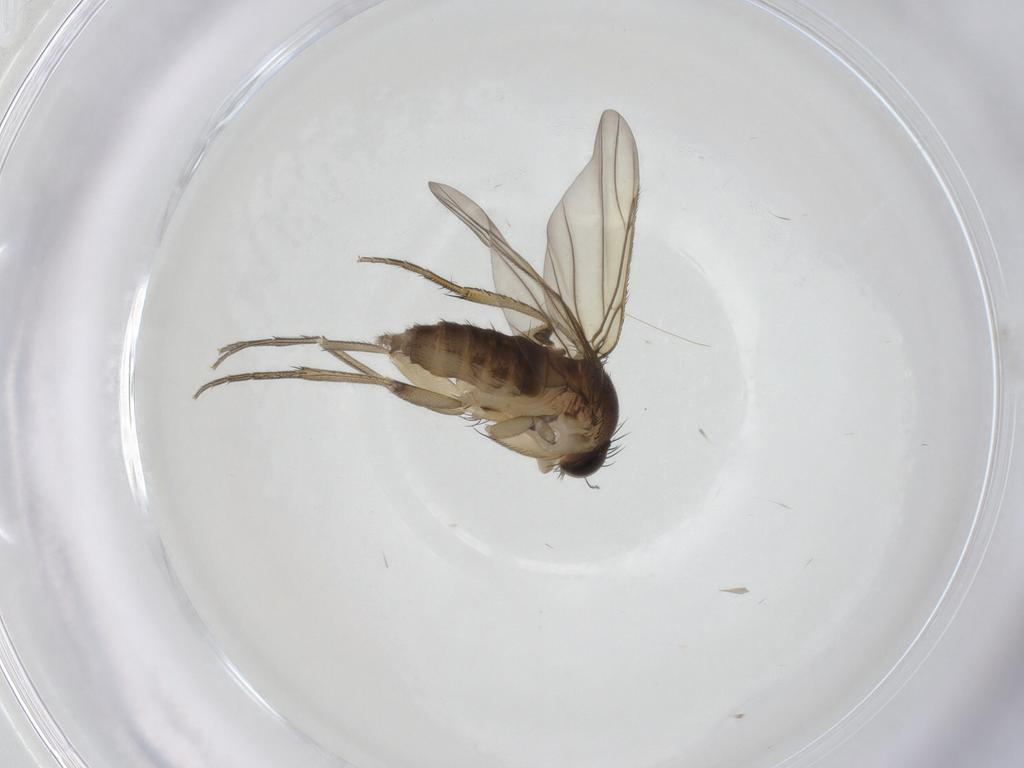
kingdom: Animalia
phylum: Arthropoda
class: Insecta
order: Diptera
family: Phoridae
